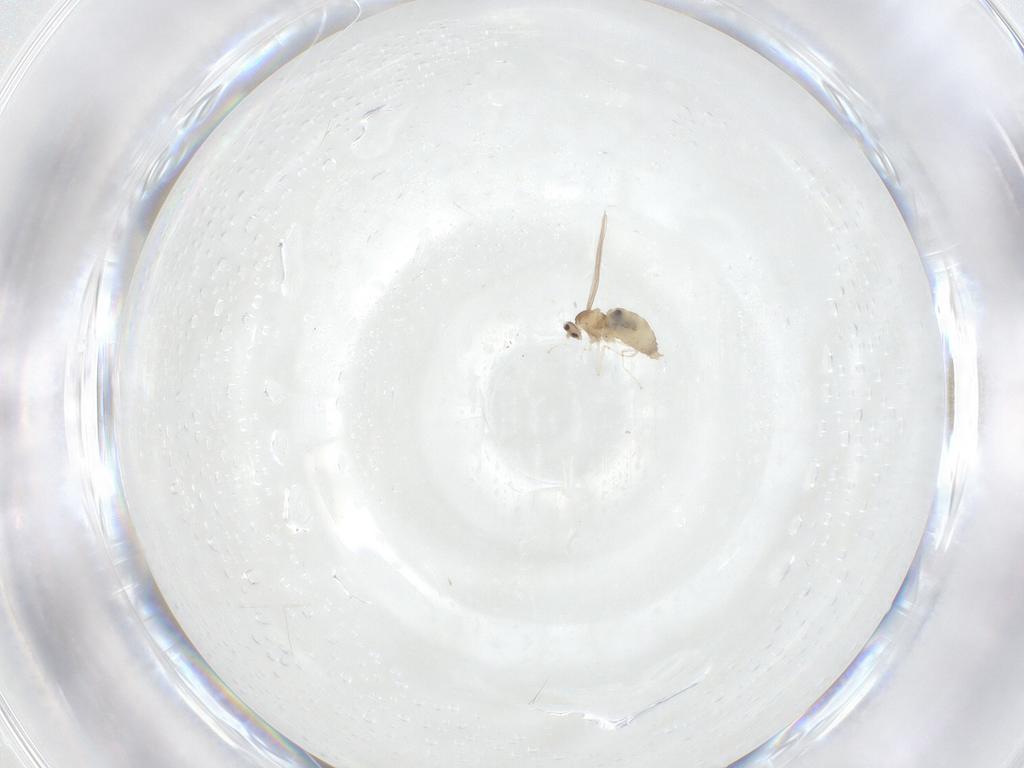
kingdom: Animalia
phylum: Arthropoda
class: Insecta
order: Diptera
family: Cecidomyiidae
